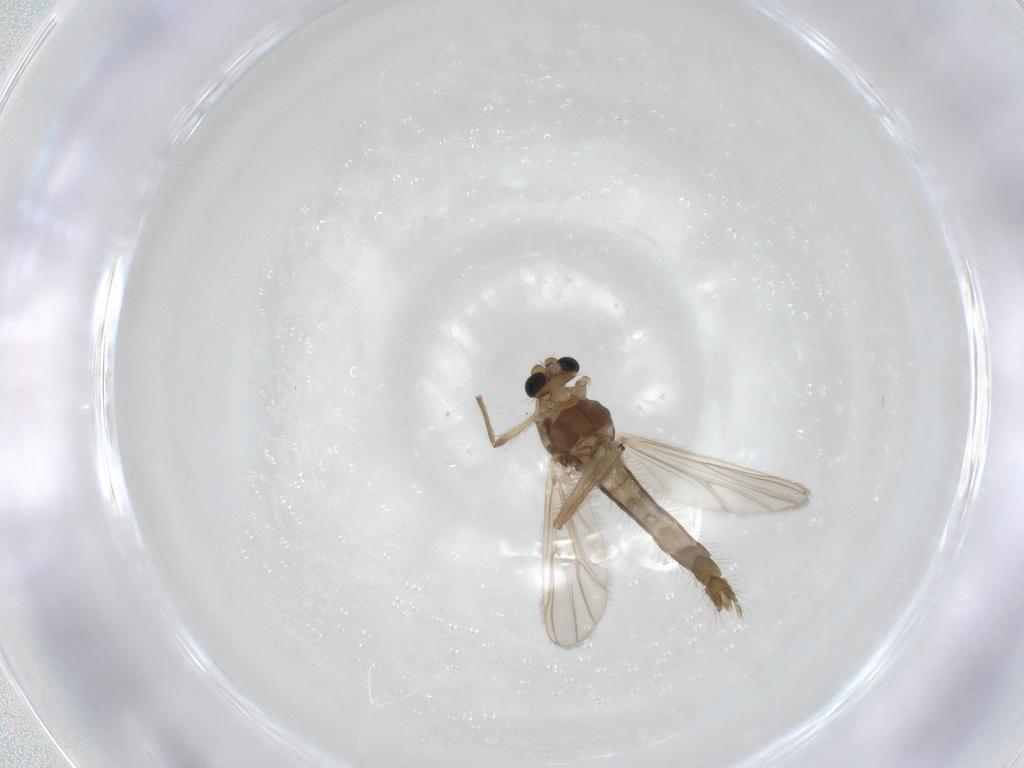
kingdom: Animalia
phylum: Arthropoda
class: Insecta
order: Diptera
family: Chironomidae
